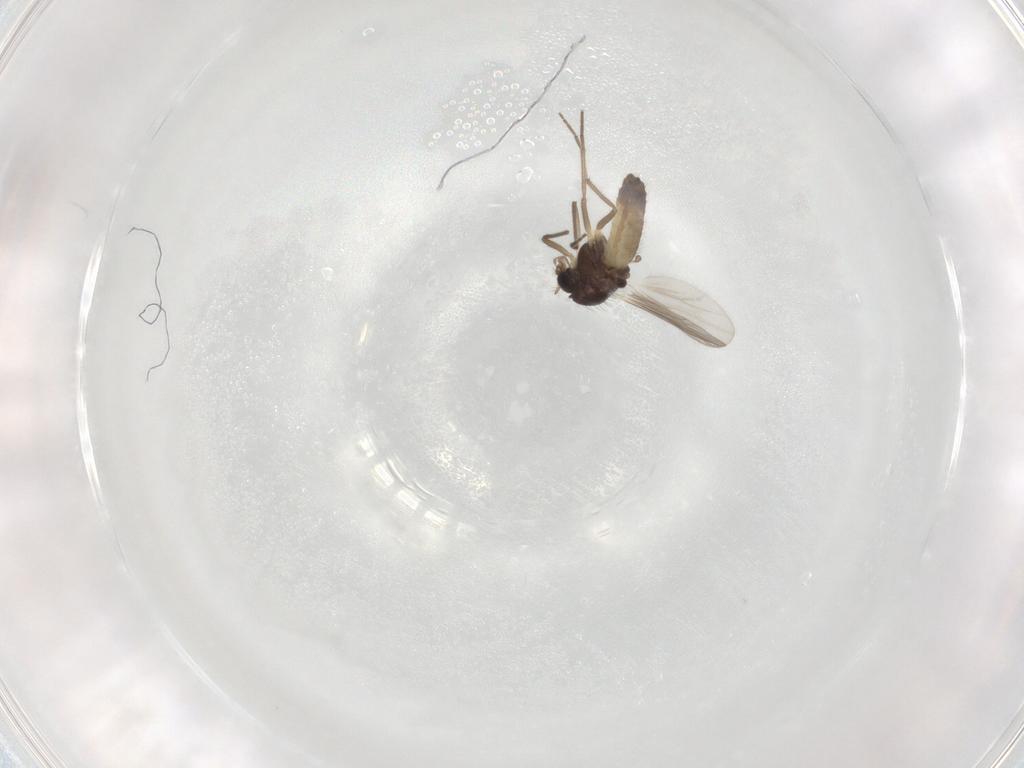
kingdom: Animalia
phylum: Arthropoda
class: Insecta
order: Diptera
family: Chironomidae
